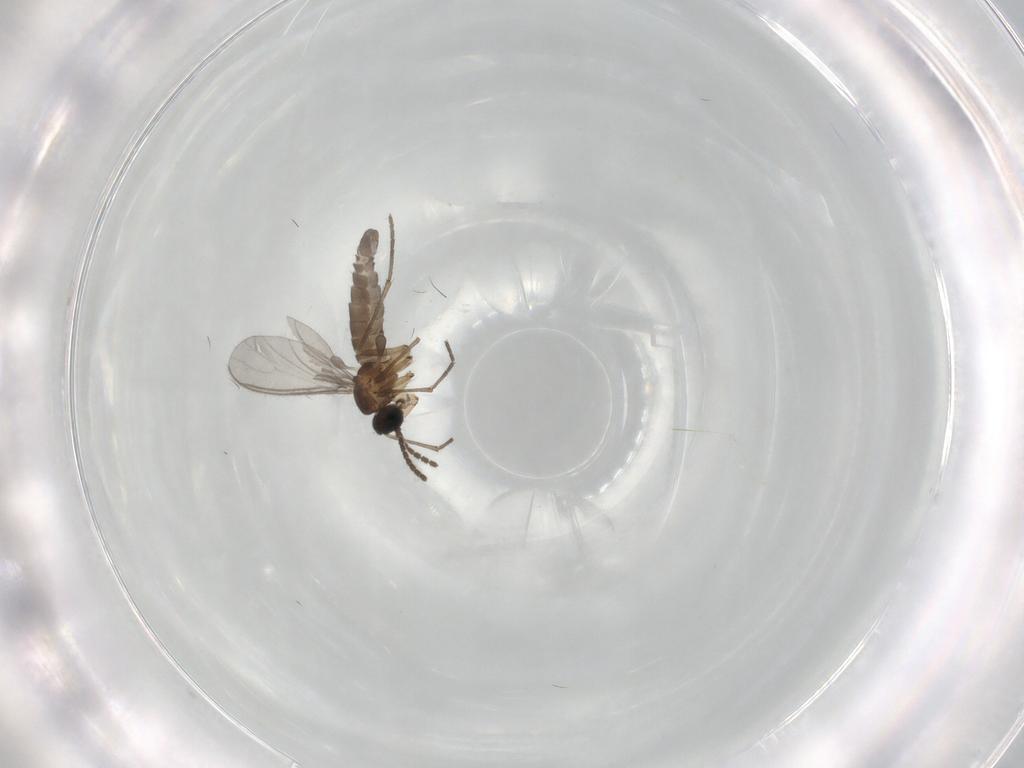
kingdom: Animalia
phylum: Arthropoda
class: Insecta
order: Diptera
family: Sciaridae
